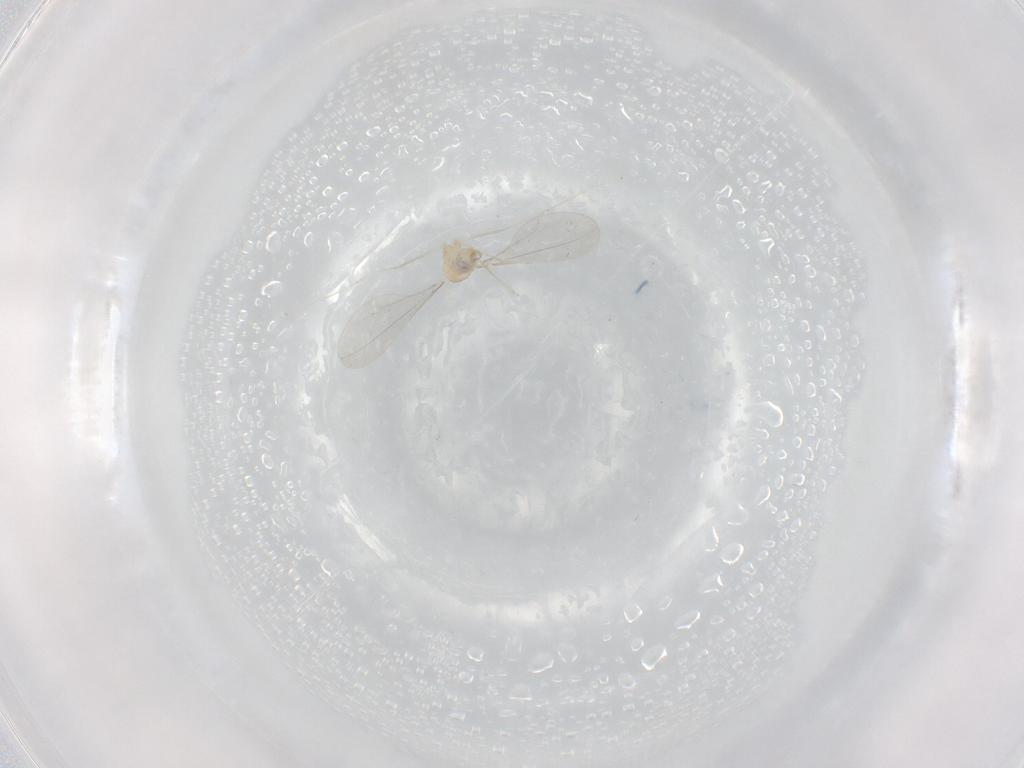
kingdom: Animalia
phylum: Arthropoda
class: Insecta
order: Diptera
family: Cecidomyiidae
